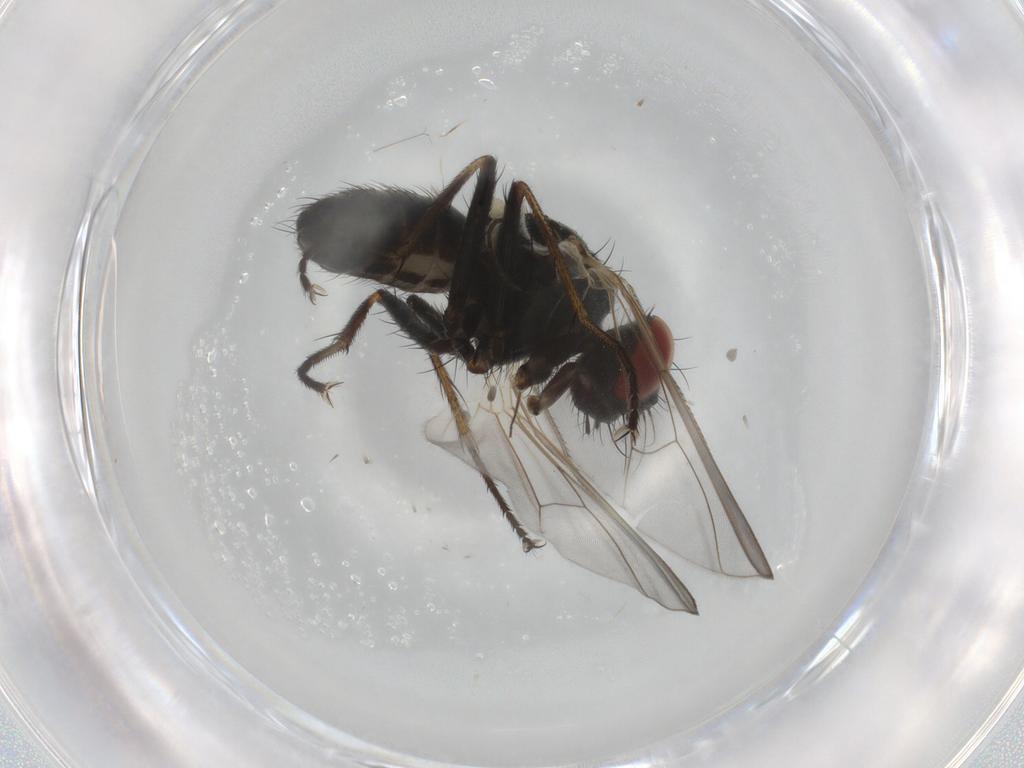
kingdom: Animalia
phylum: Arthropoda
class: Insecta
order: Diptera
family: Muscidae
